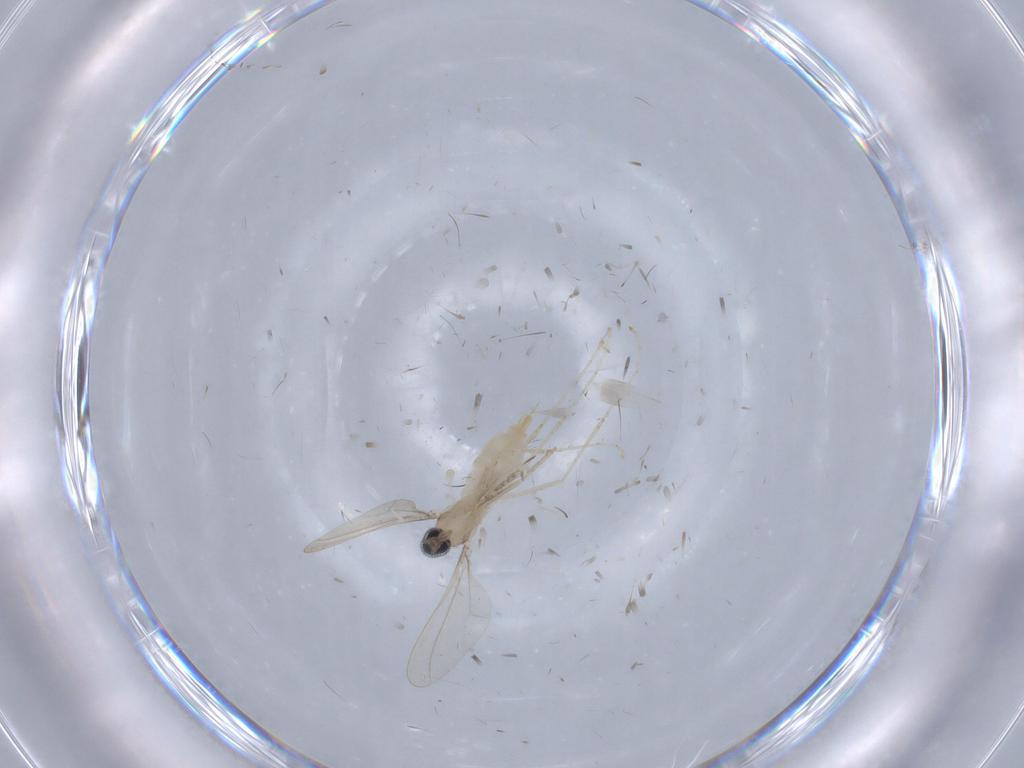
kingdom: Animalia
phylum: Arthropoda
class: Insecta
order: Diptera
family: Cecidomyiidae
